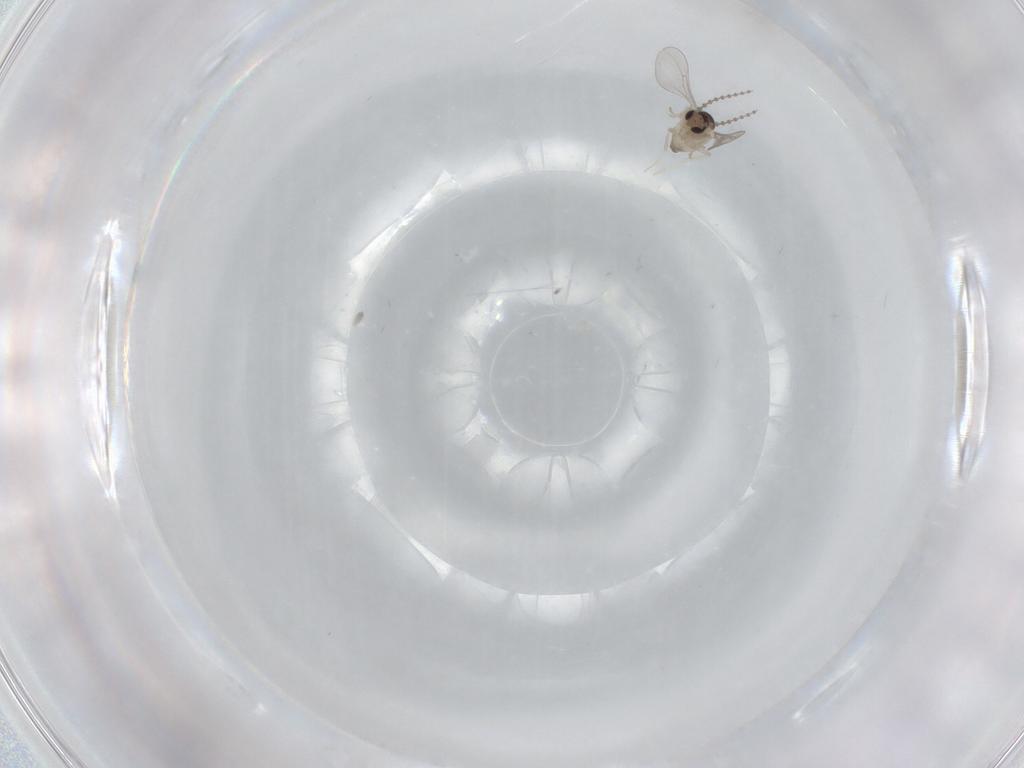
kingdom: Animalia
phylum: Arthropoda
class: Insecta
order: Diptera
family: Cecidomyiidae
